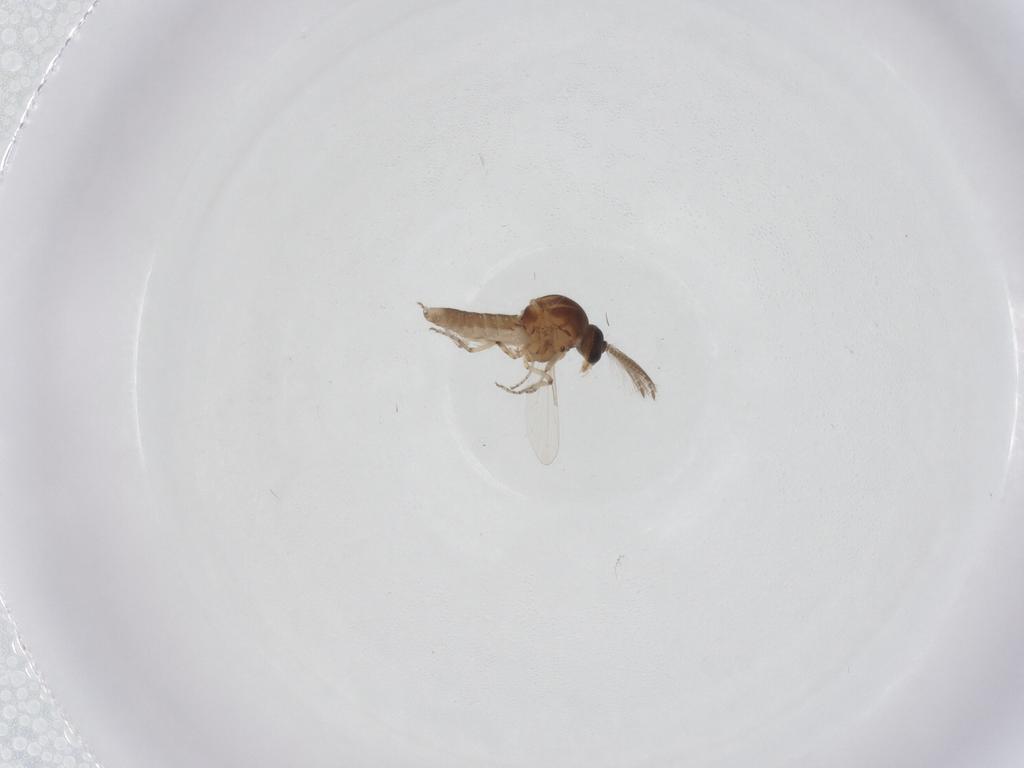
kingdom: Animalia
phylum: Arthropoda
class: Insecta
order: Diptera
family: Ceratopogonidae
